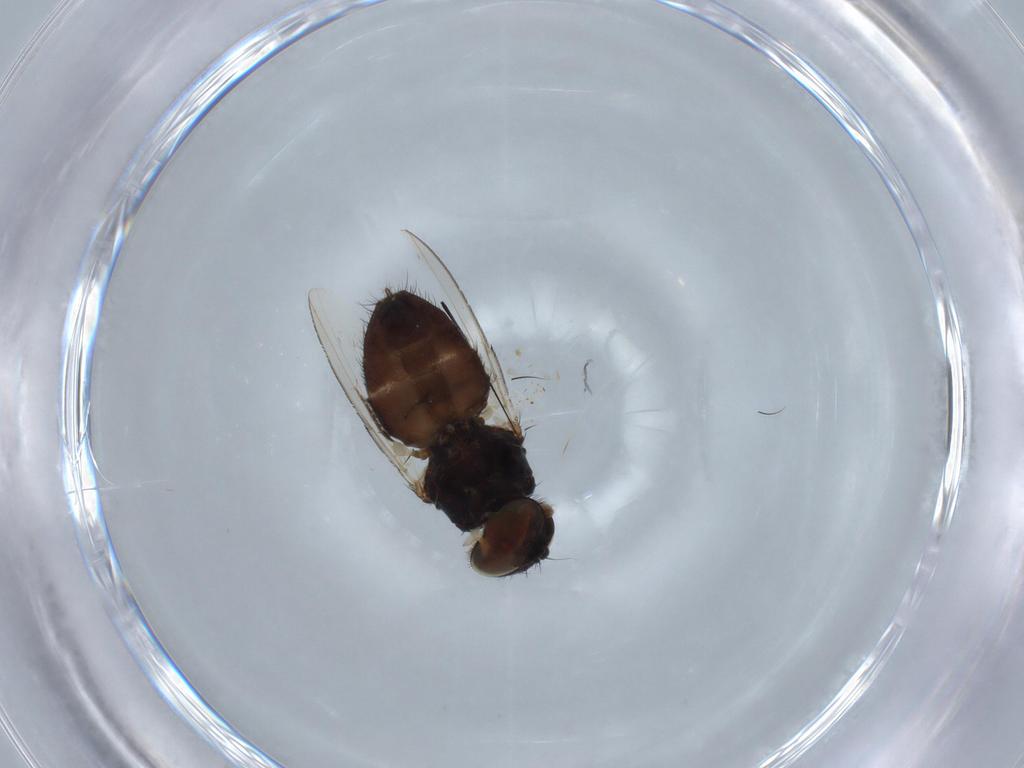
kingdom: Animalia
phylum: Arthropoda
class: Insecta
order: Diptera
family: Milichiidae
